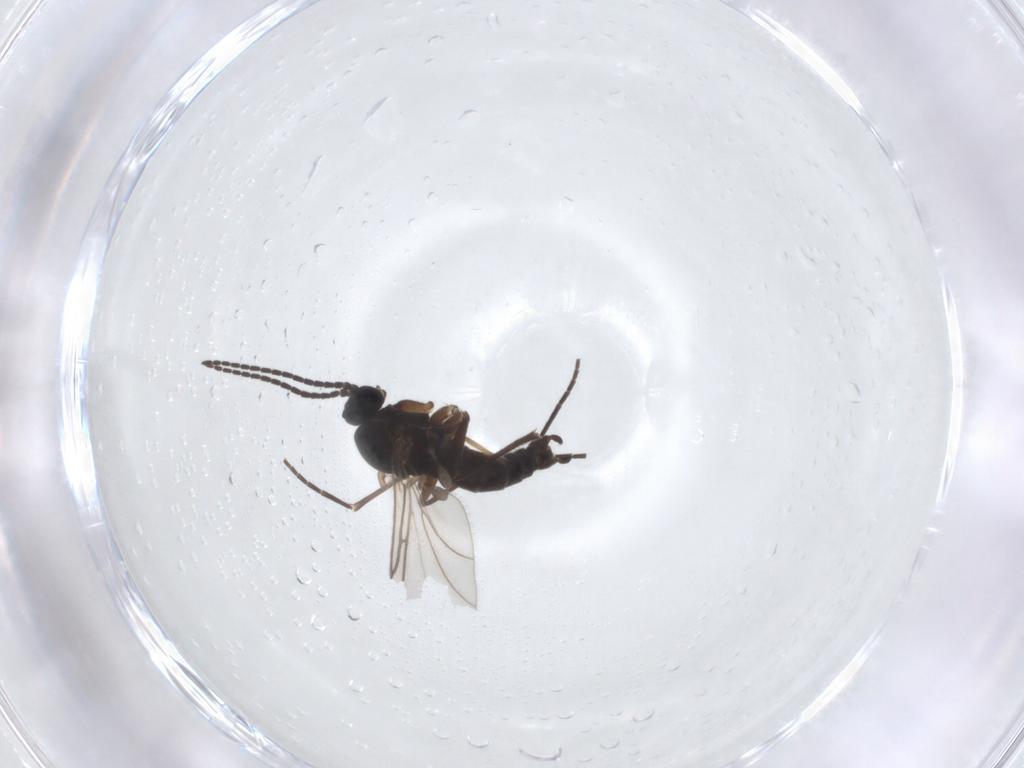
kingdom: Animalia
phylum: Arthropoda
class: Insecta
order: Diptera
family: Sciaridae
